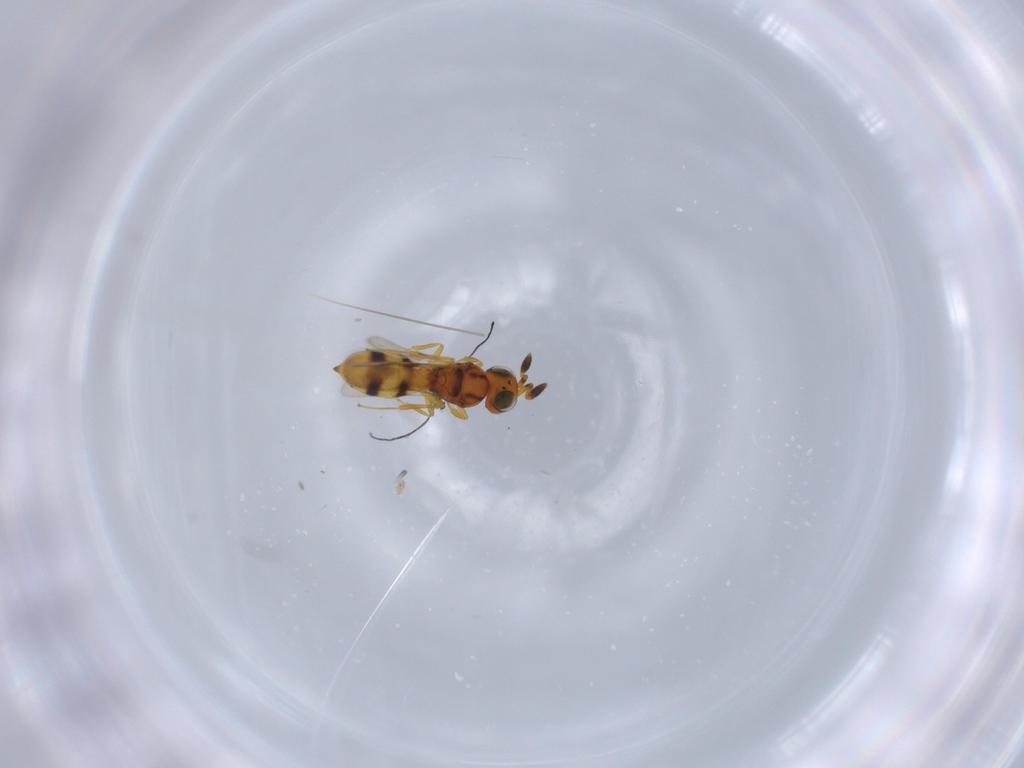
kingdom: Animalia
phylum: Arthropoda
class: Insecta
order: Hymenoptera
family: Scelionidae
